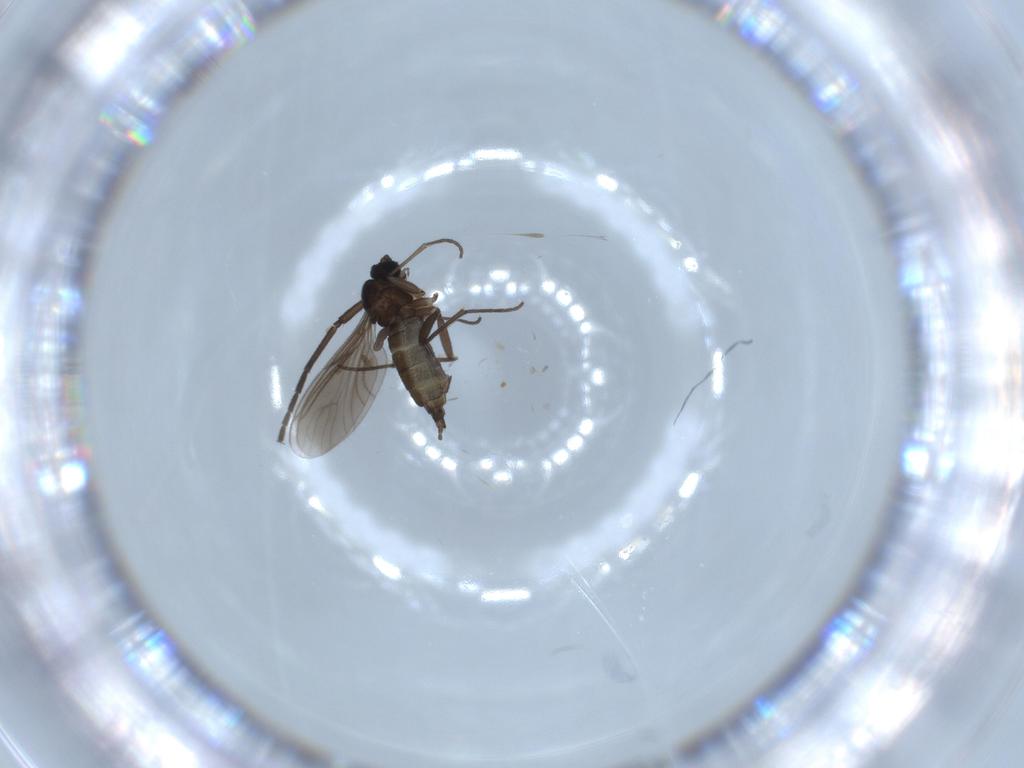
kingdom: Animalia
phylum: Arthropoda
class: Insecta
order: Diptera
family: Sciaridae
